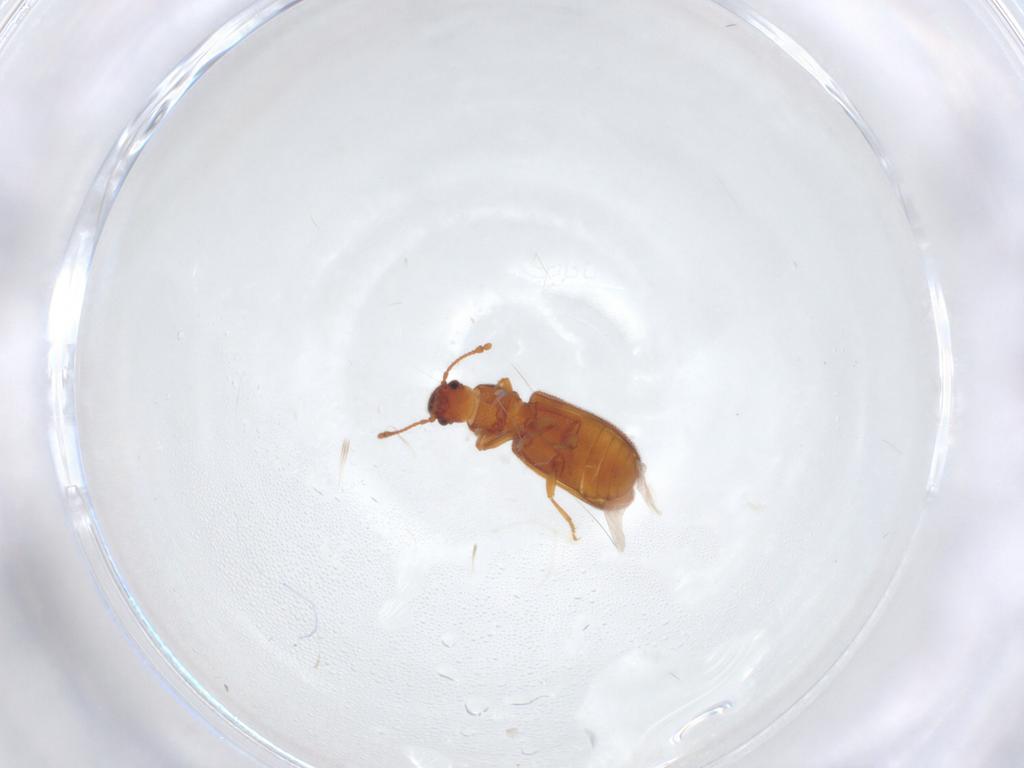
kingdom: Animalia
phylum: Arthropoda
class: Insecta
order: Coleoptera
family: Mycetophagidae
